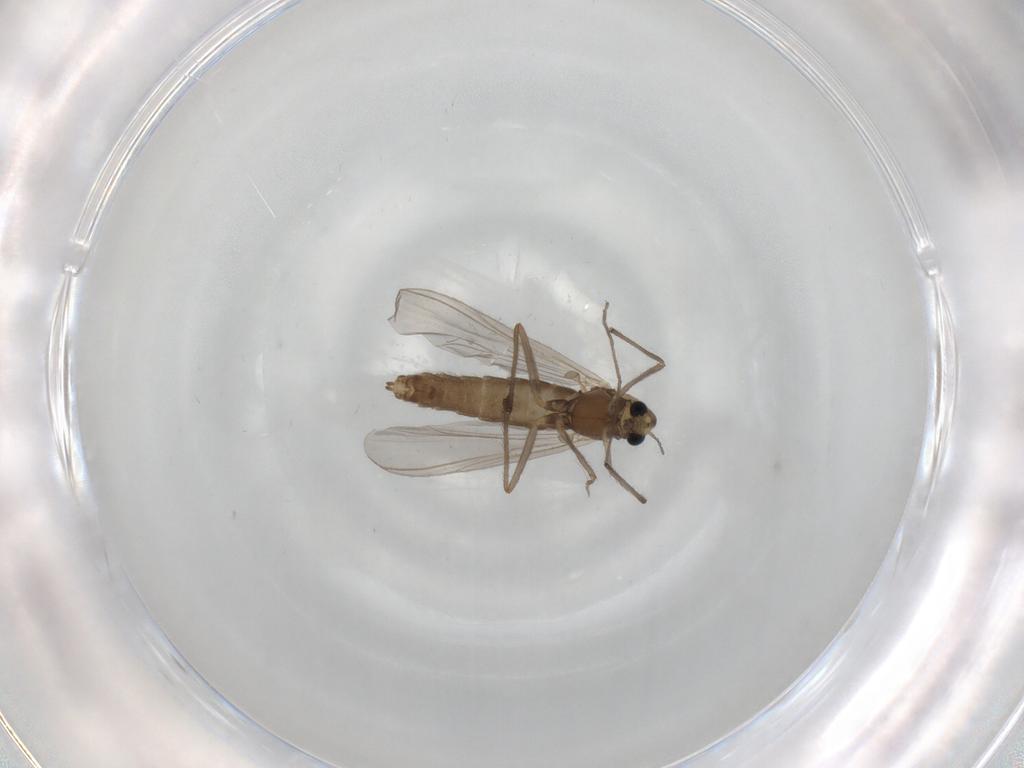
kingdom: Animalia
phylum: Arthropoda
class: Insecta
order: Diptera
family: Chironomidae
